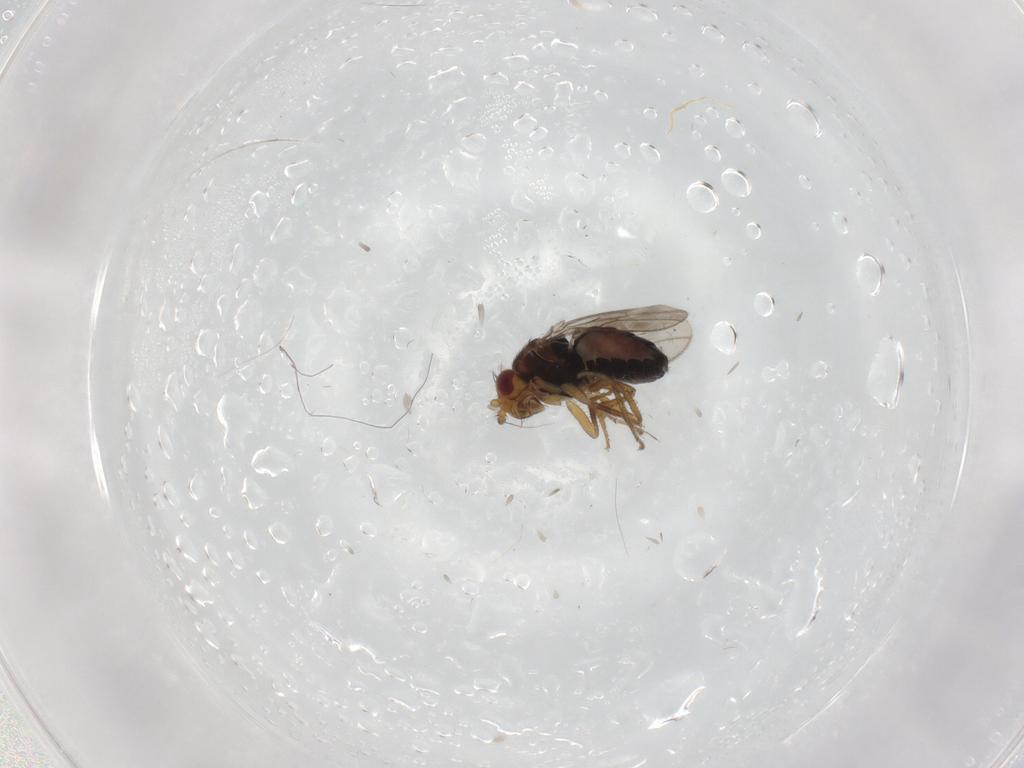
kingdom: Animalia
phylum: Arthropoda
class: Insecta
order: Diptera
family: Sphaeroceridae
